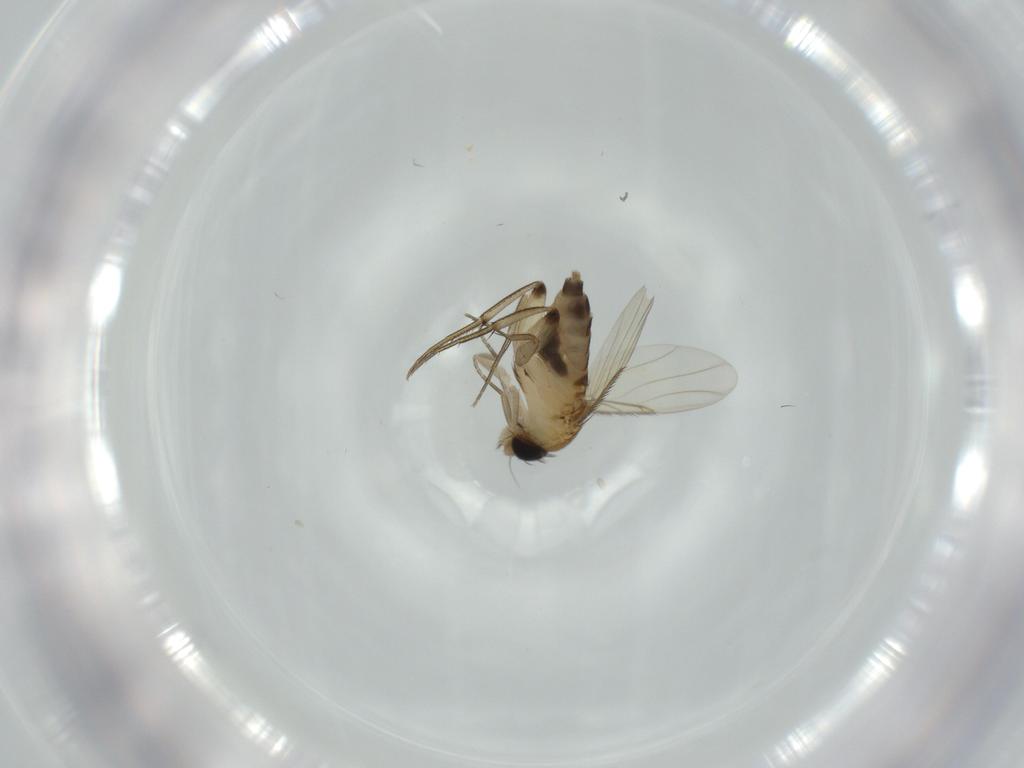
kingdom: Animalia
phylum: Arthropoda
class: Insecta
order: Diptera
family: Phoridae
